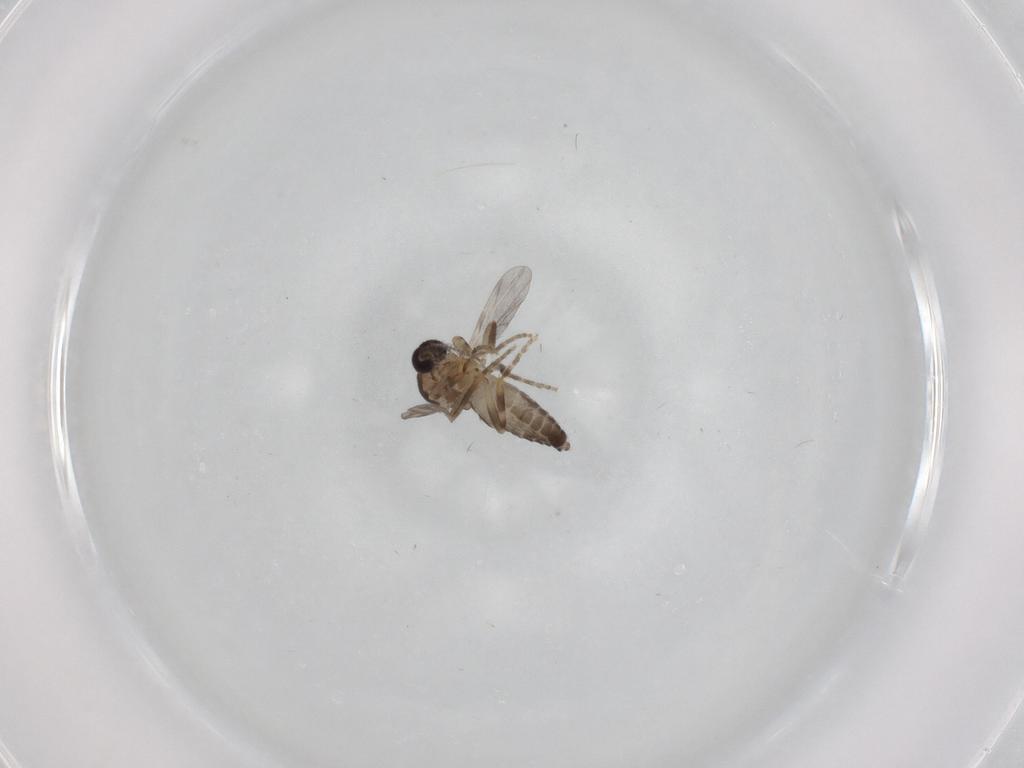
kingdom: Animalia
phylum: Arthropoda
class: Insecta
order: Diptera
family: Ceratopogonidae
